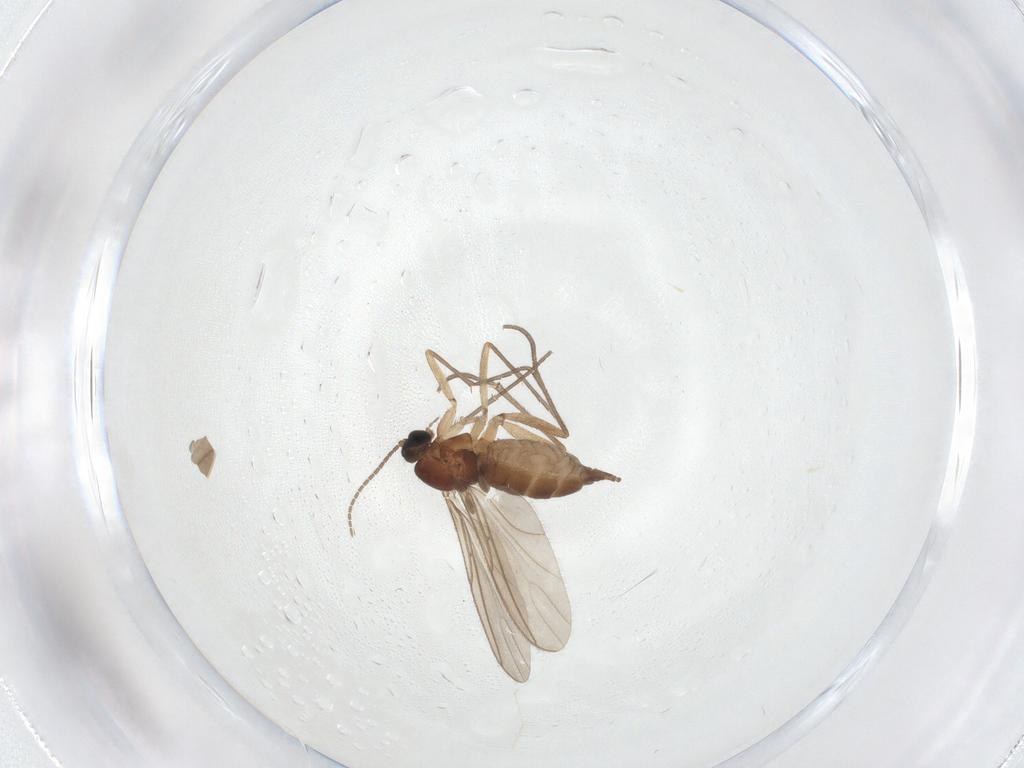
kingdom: Animalia
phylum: Arthropoda
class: Insecta
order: Diptera
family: Sciaridae
